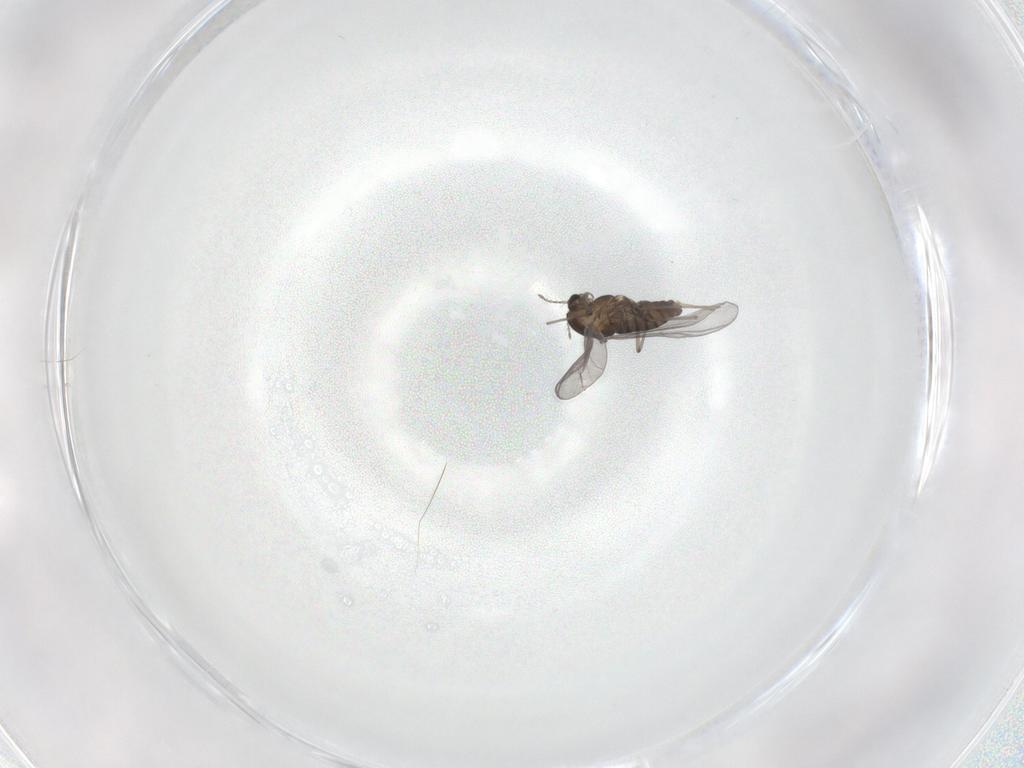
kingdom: Animalia
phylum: Arthropoda
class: Insecta
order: Diptera
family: Chironomidae
